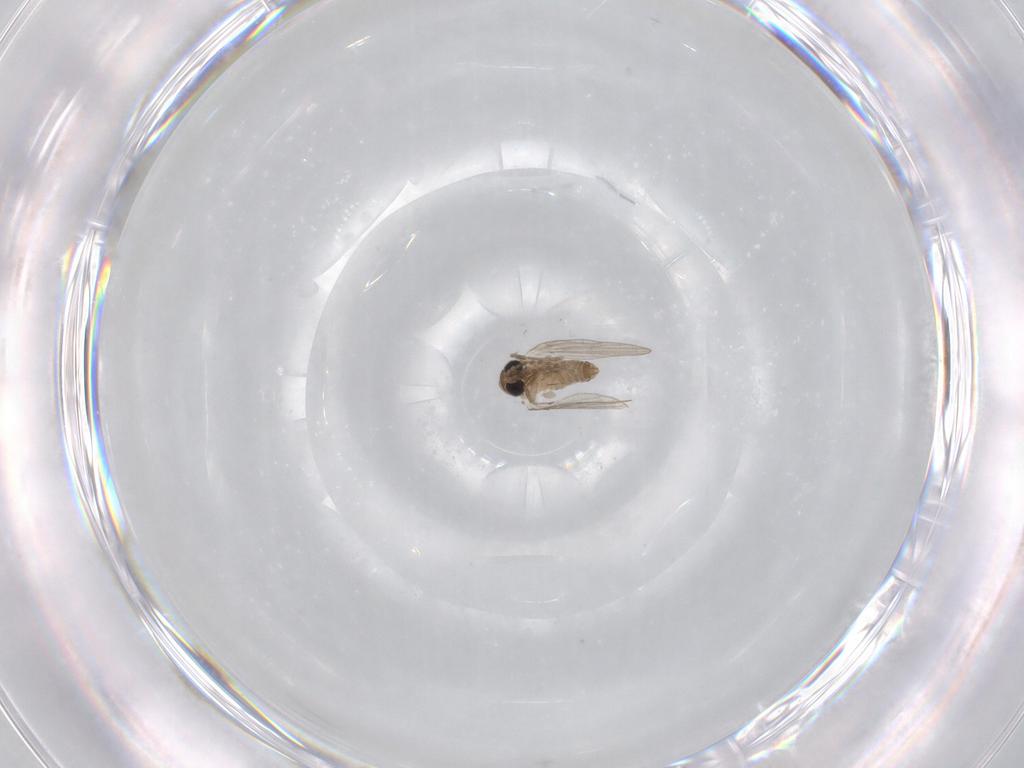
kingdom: Animalia
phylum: Arthropoda
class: Insecta
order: Diptera
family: Psychodidae
